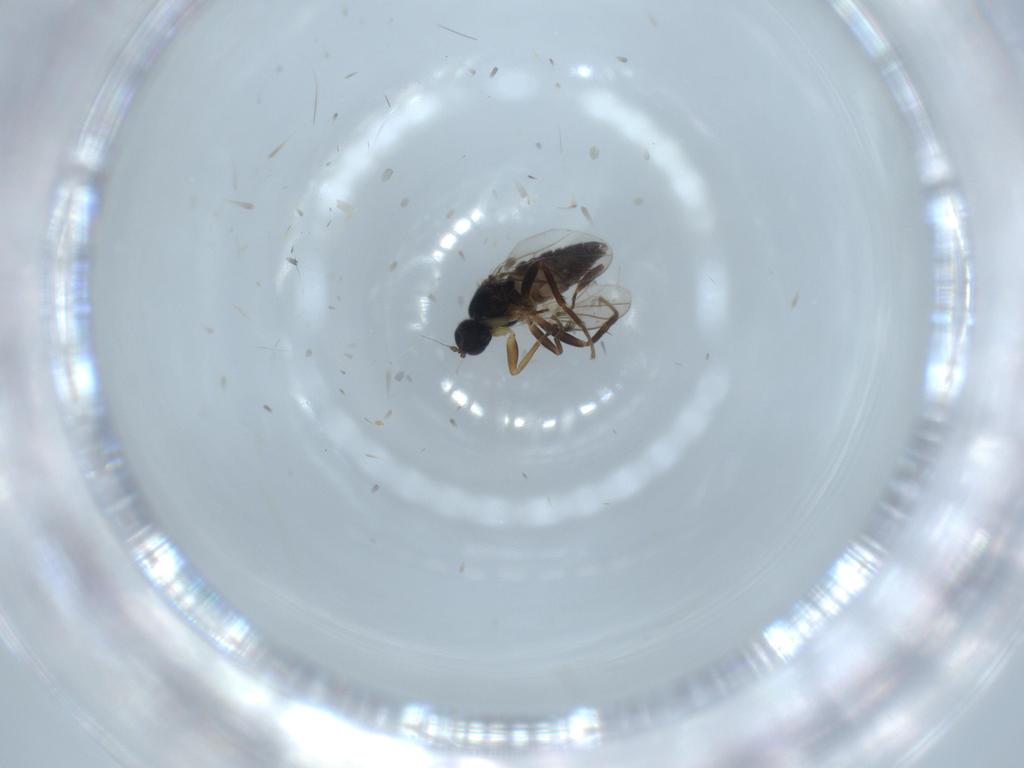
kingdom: Animalia
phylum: Arthropoda
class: Insecta
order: Diptera
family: Hybotidae
